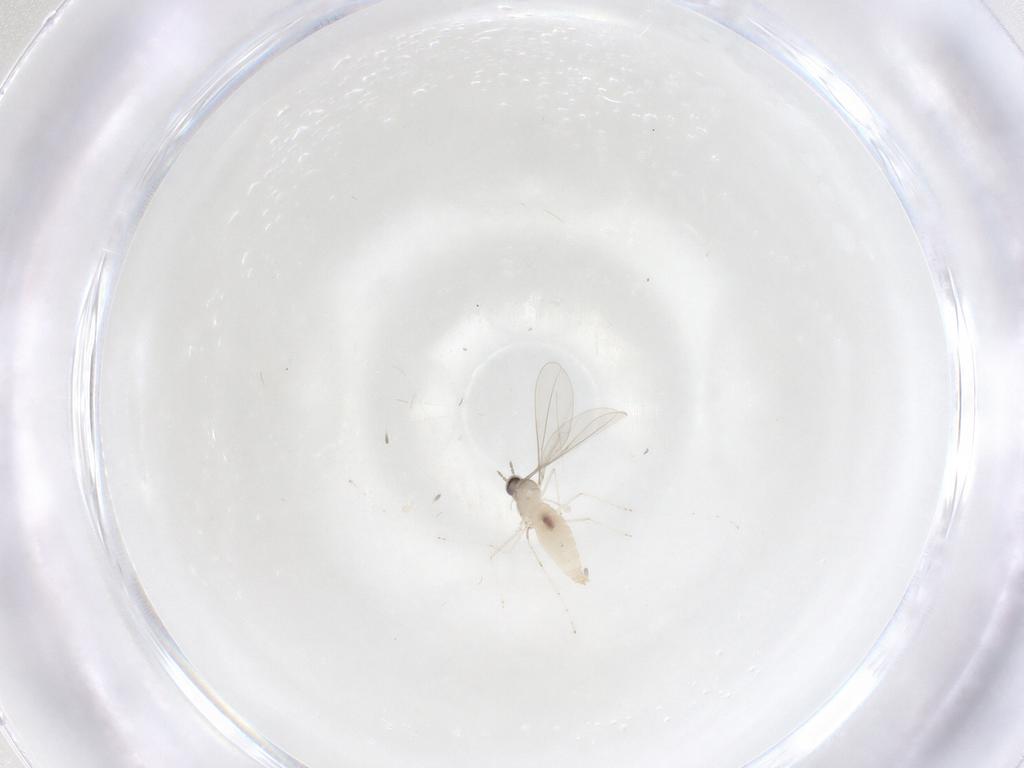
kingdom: Animalia
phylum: Arthropoda
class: Insecta
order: Diptera
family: Cecidomyiidae
